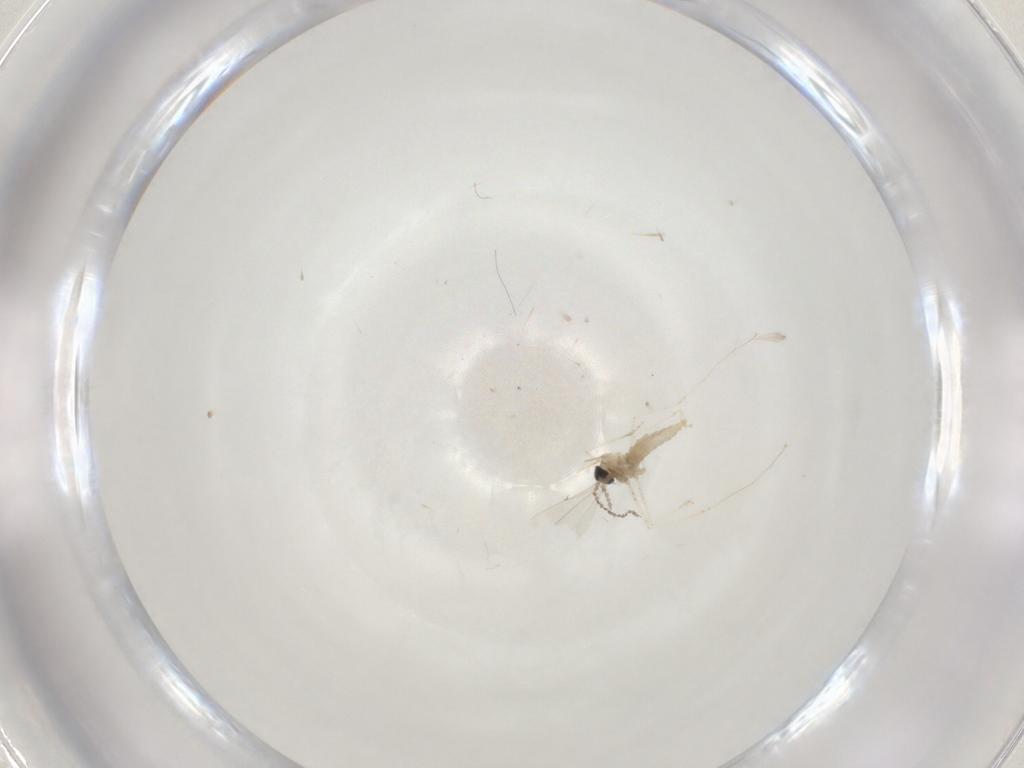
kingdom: Animalia
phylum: Arthropoda
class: Insecta
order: Diptera
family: Cecidomyiidae
